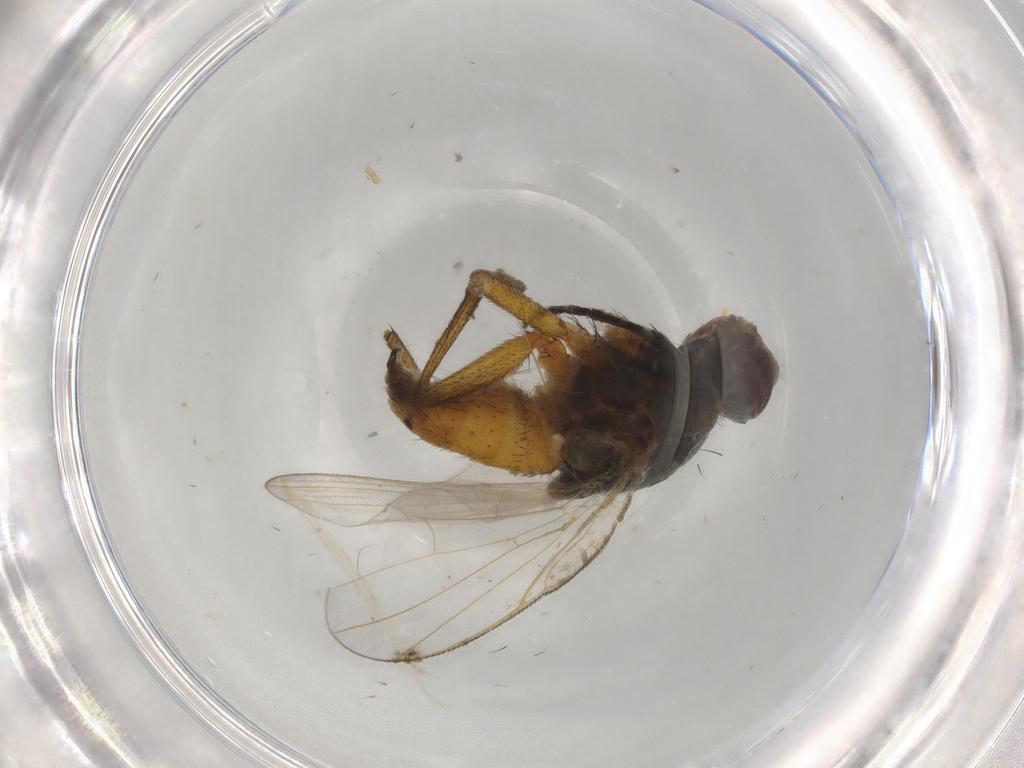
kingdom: Animalia
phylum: Arthropoda
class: Insecta
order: Diptera
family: Muscidae
